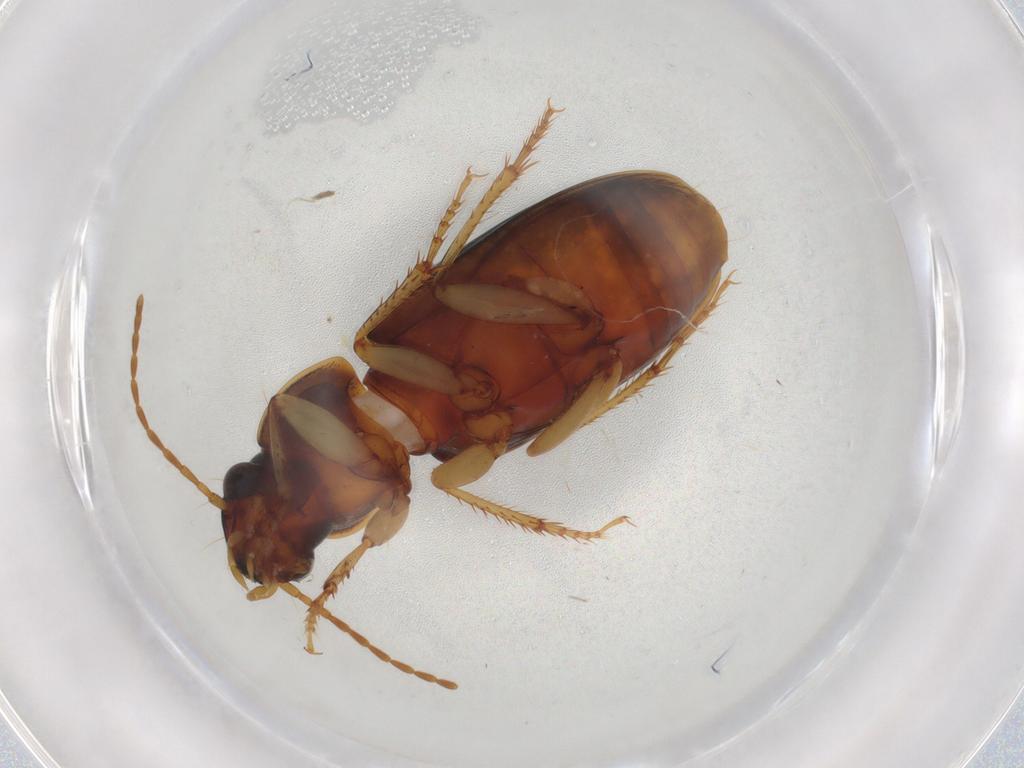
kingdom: Animalia
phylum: Arthropoda
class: Insecta
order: Coleoptera
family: Carabidae
